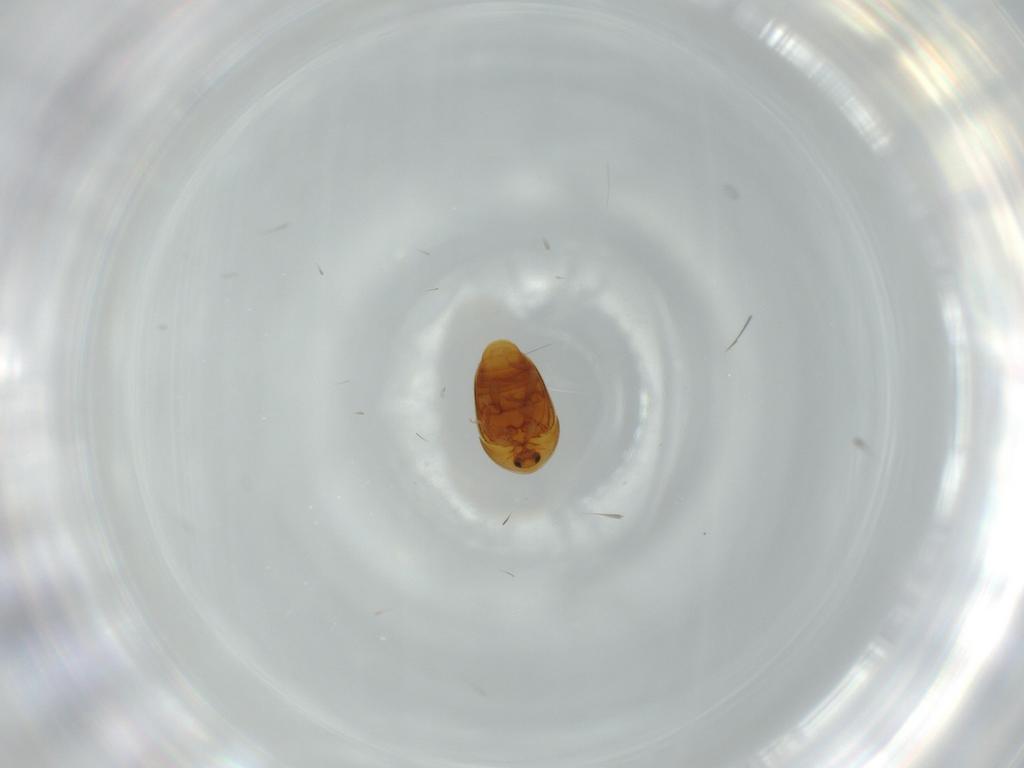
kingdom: Animalia
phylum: Arthropoda
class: Insecta
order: Coleoptera
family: Corylophidae
